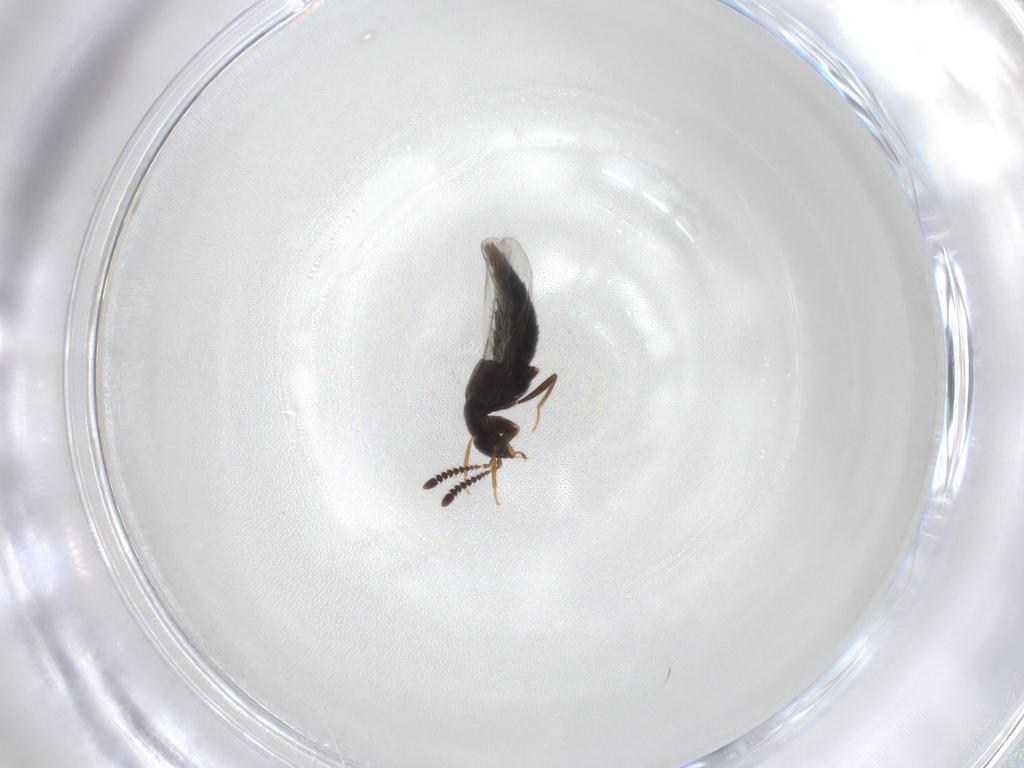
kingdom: Animalia
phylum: Arthropoda
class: Insecta
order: Coleoptera
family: Staphylinidae
